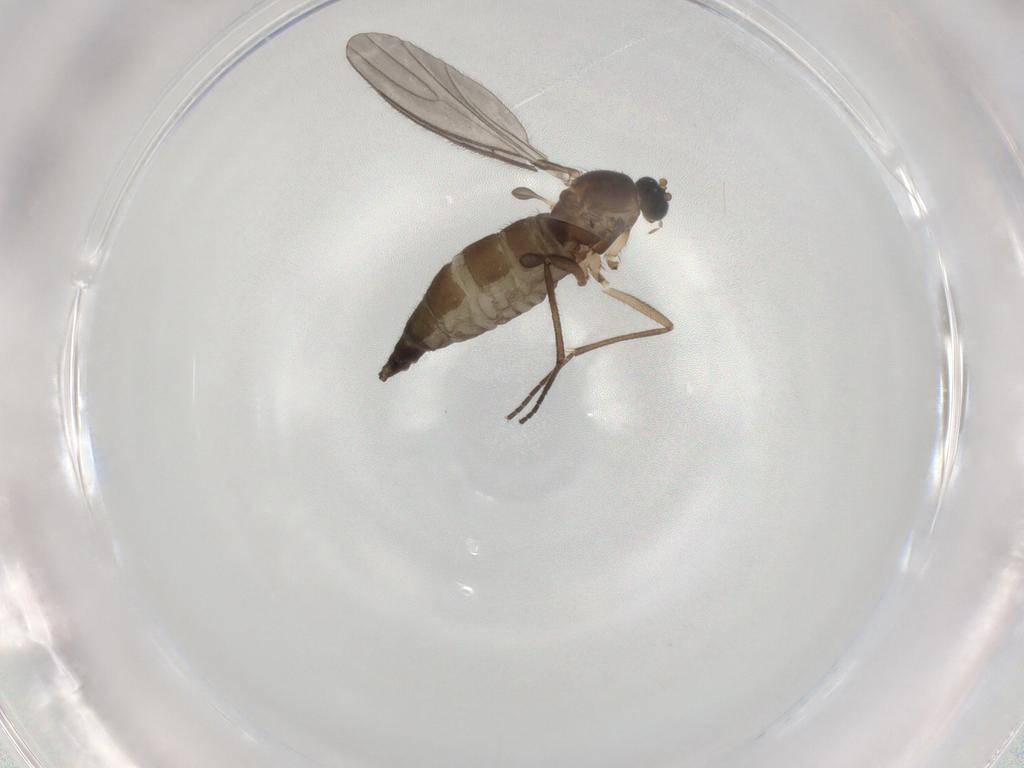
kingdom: Animalia
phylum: Arthropoda
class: Insecta
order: Diptera
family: Sciaridae
